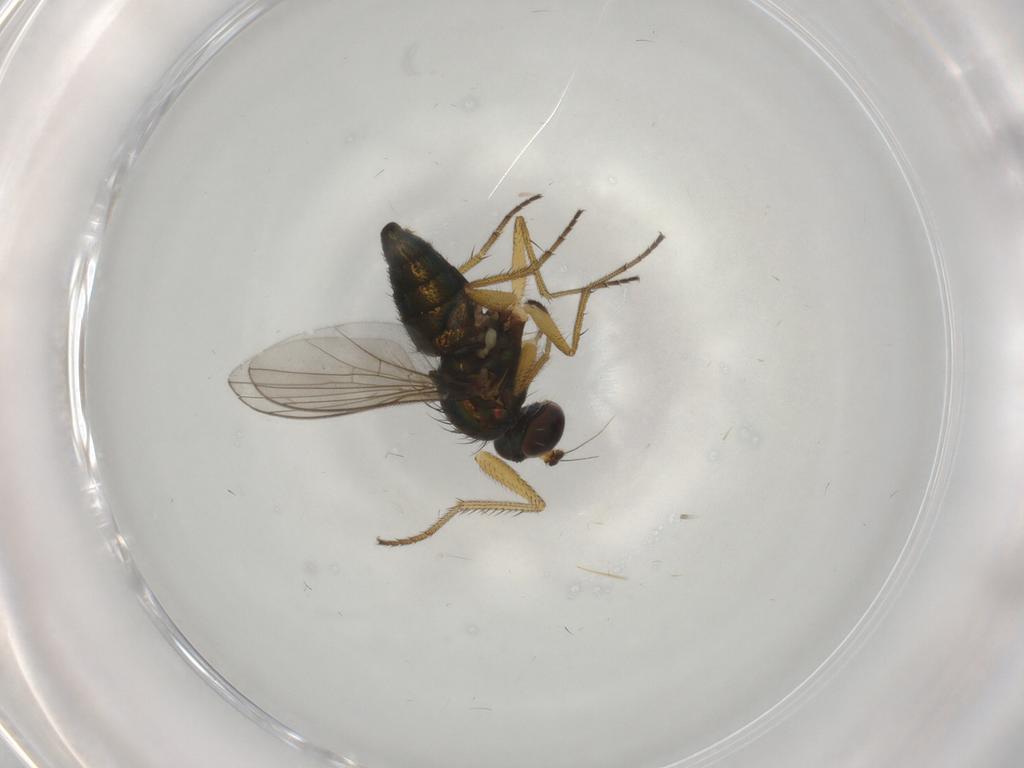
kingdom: Animalia
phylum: Arthropoda
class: Insecta
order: Diptera
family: Dolichopodidae
